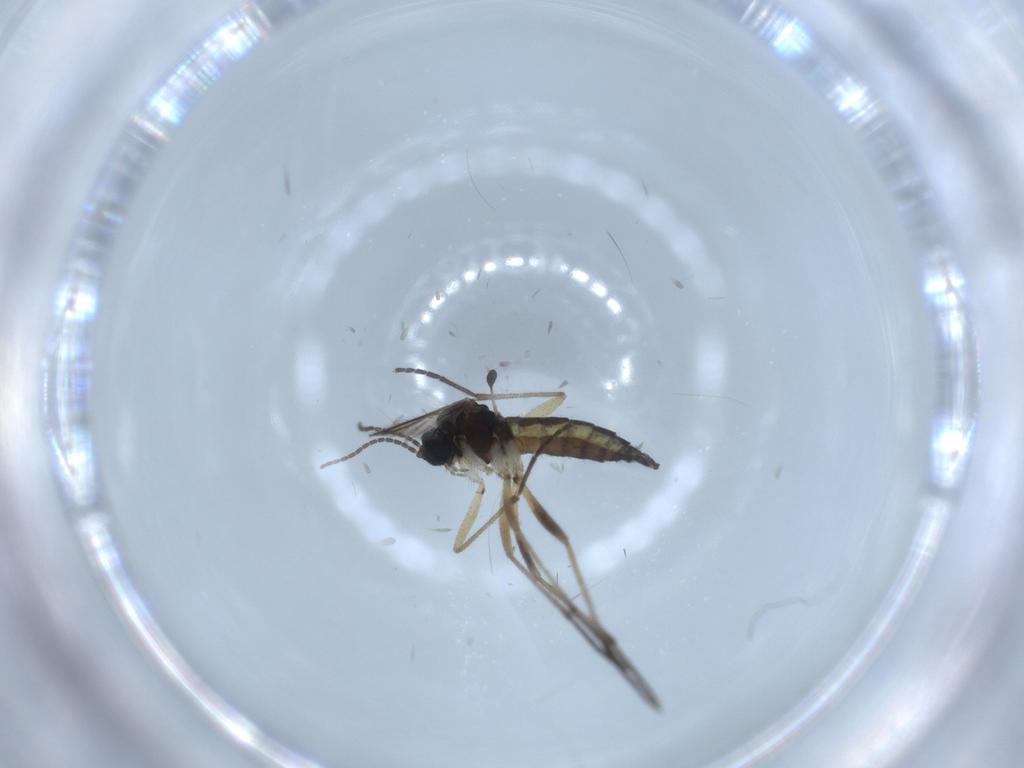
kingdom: Animalia
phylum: Arthropoda
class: Insecta
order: Diptera
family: Sciaridae
